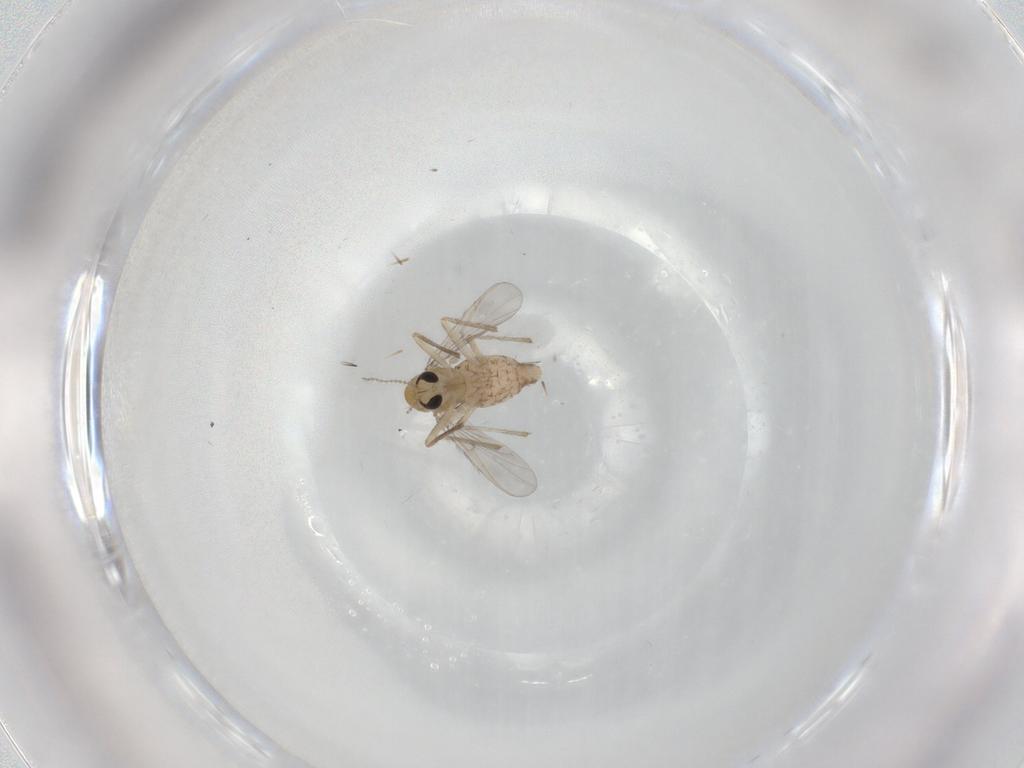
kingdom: Animalia
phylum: Arthropoda
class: Insecta
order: Diptera
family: Chironomidae
